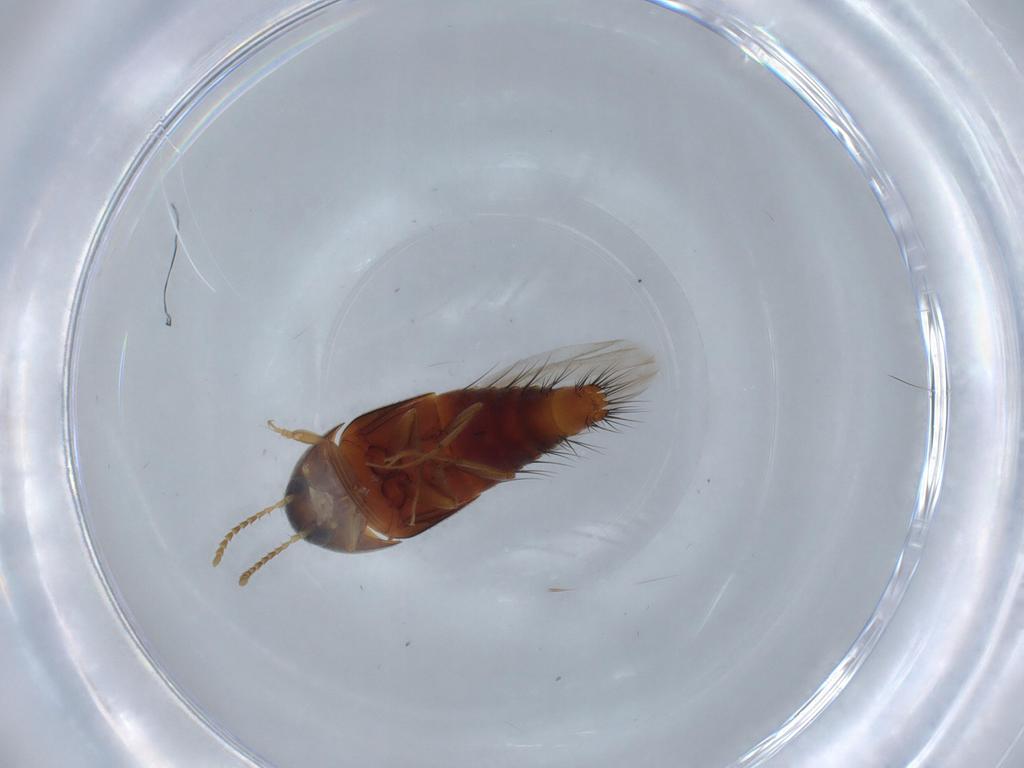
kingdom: Animalia
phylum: Arthropoda
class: Insecta
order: Coleoptera
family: Staphylinidae
